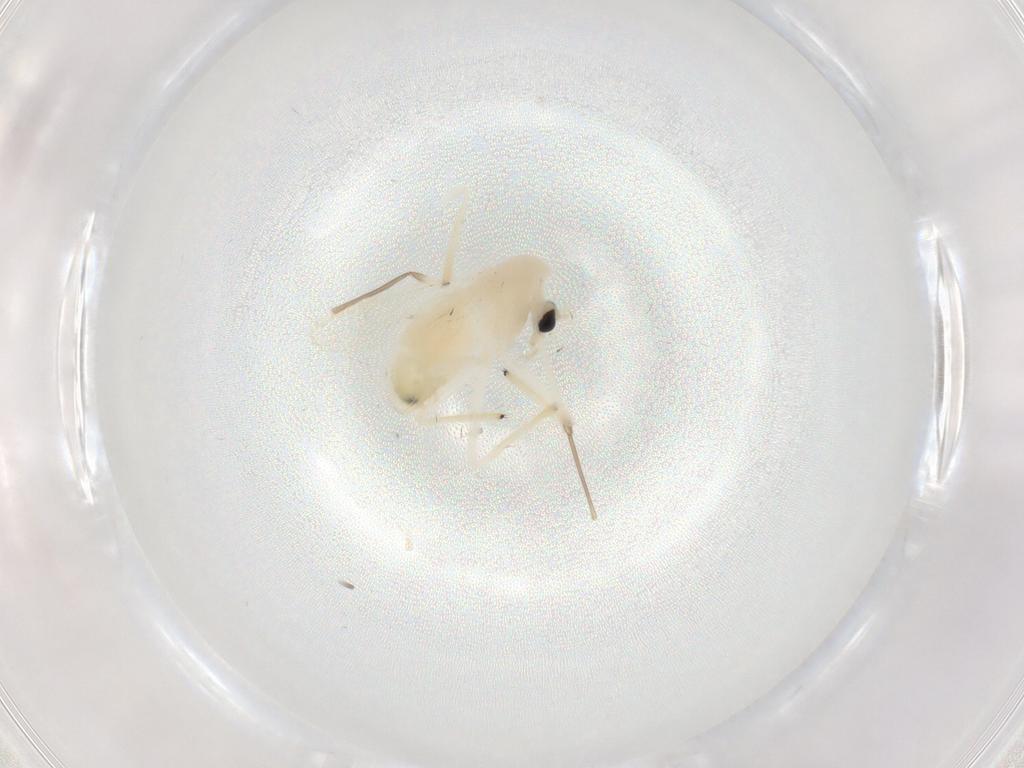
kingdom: Animalia
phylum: Arthropoda
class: Insecta
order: Diptera
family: Chironomidae
